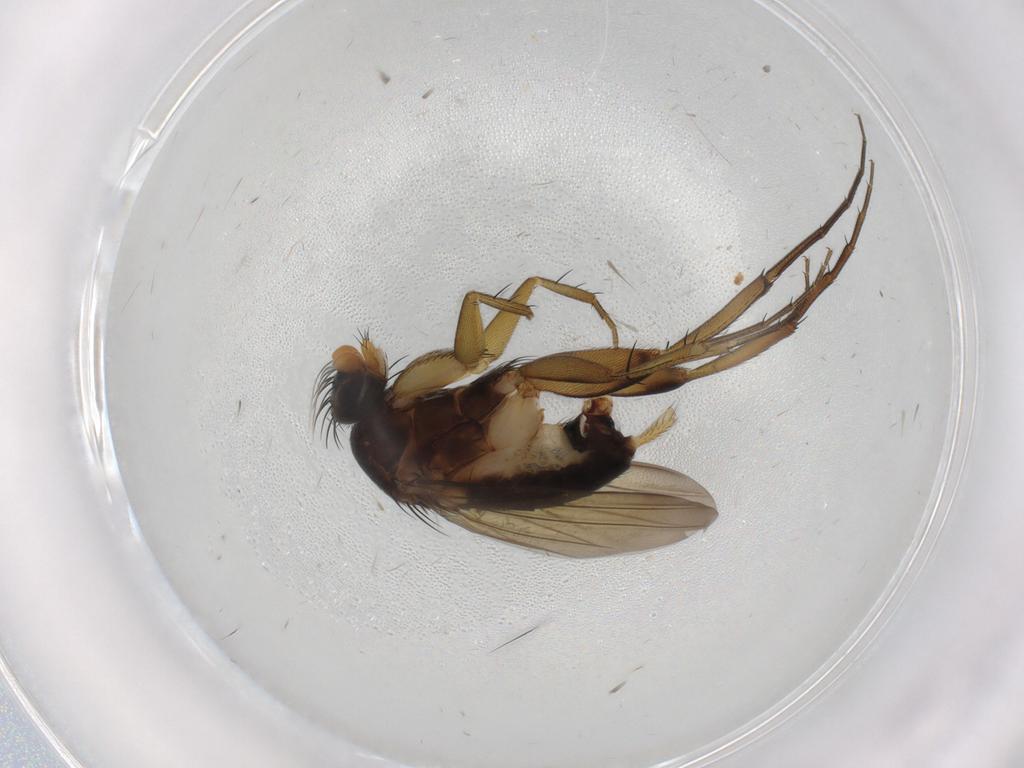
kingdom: Animalia
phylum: Arthropoda
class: Insecta
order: Diptera
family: Phoridae
